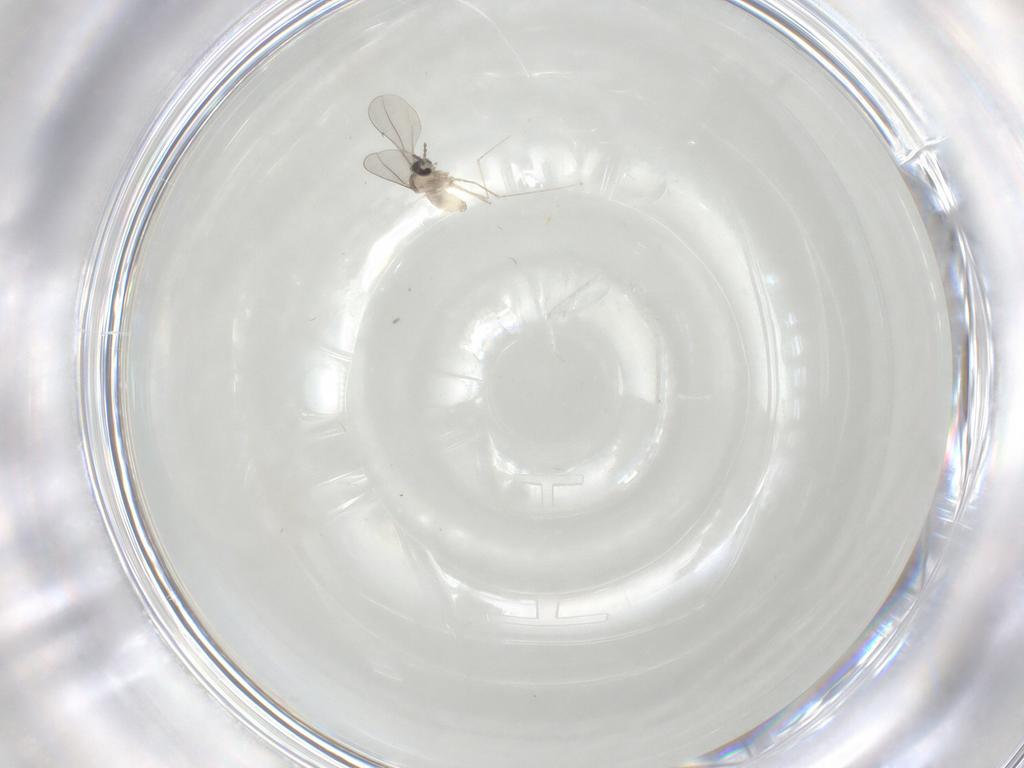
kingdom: Animalia
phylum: Arthropoda
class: Insecta
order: Diptera
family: Cecidomyiidae
